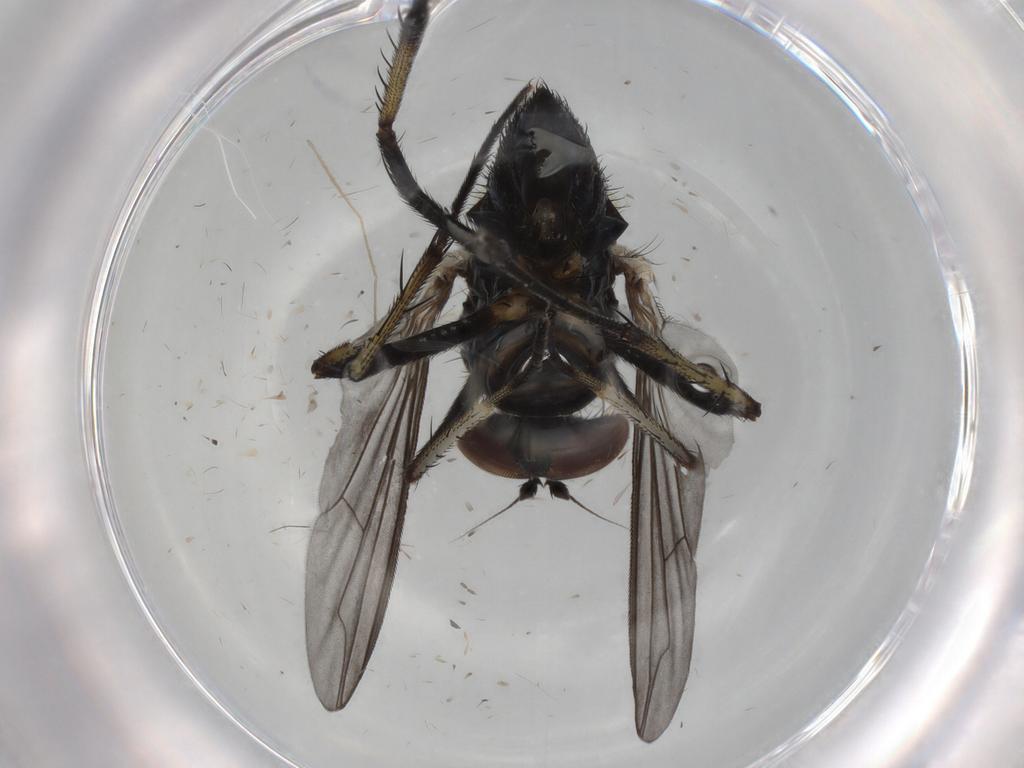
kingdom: Animalia
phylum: Arthropoda
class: Insecta
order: Diptera
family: Dolichopodidae
